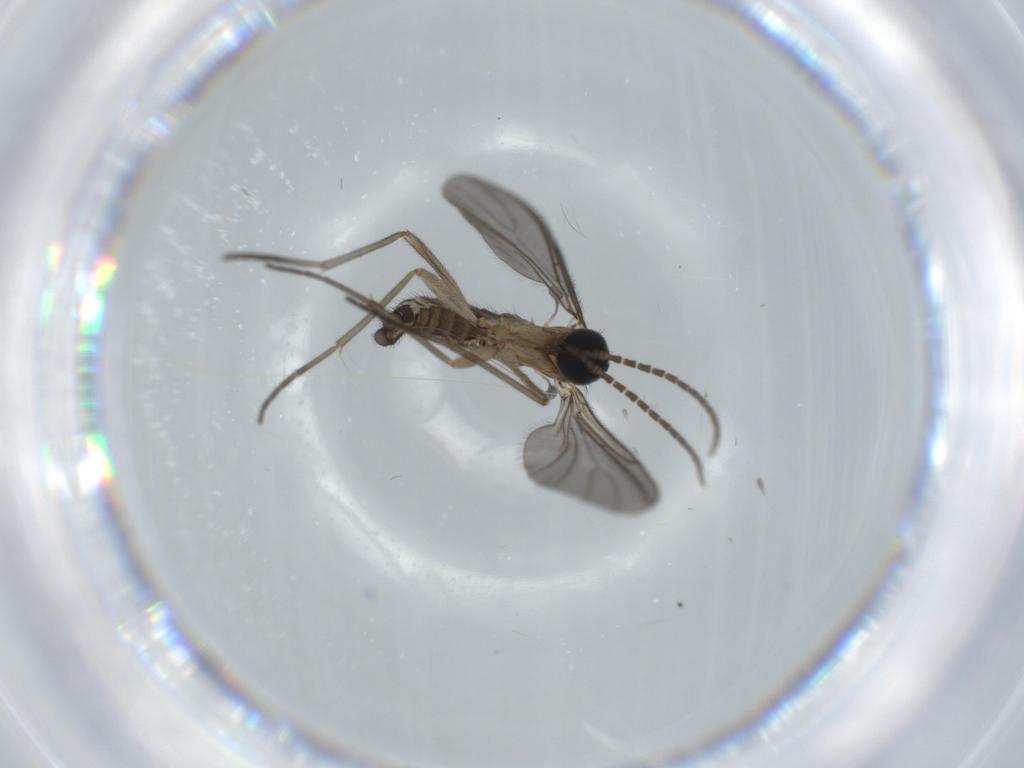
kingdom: Animalia
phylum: Arthropoda
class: Insecta
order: Diptera
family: Sciaridae
